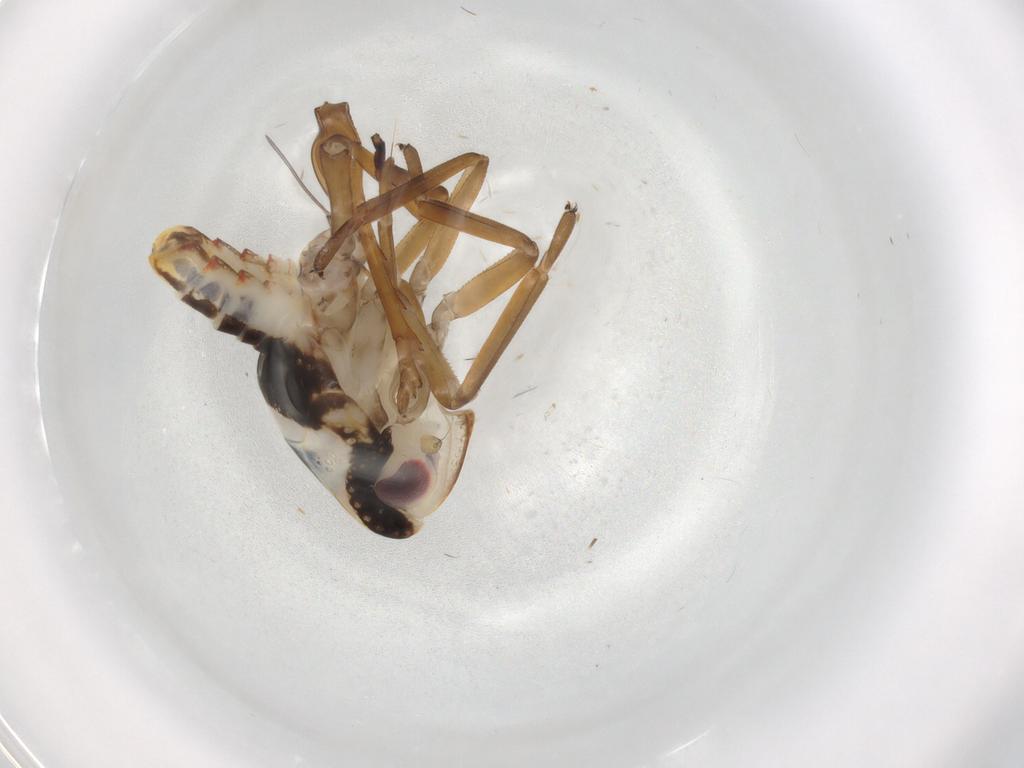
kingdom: Animalia
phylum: Arthropoda
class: Insecta
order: Hemiptera
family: Nogodinidae
